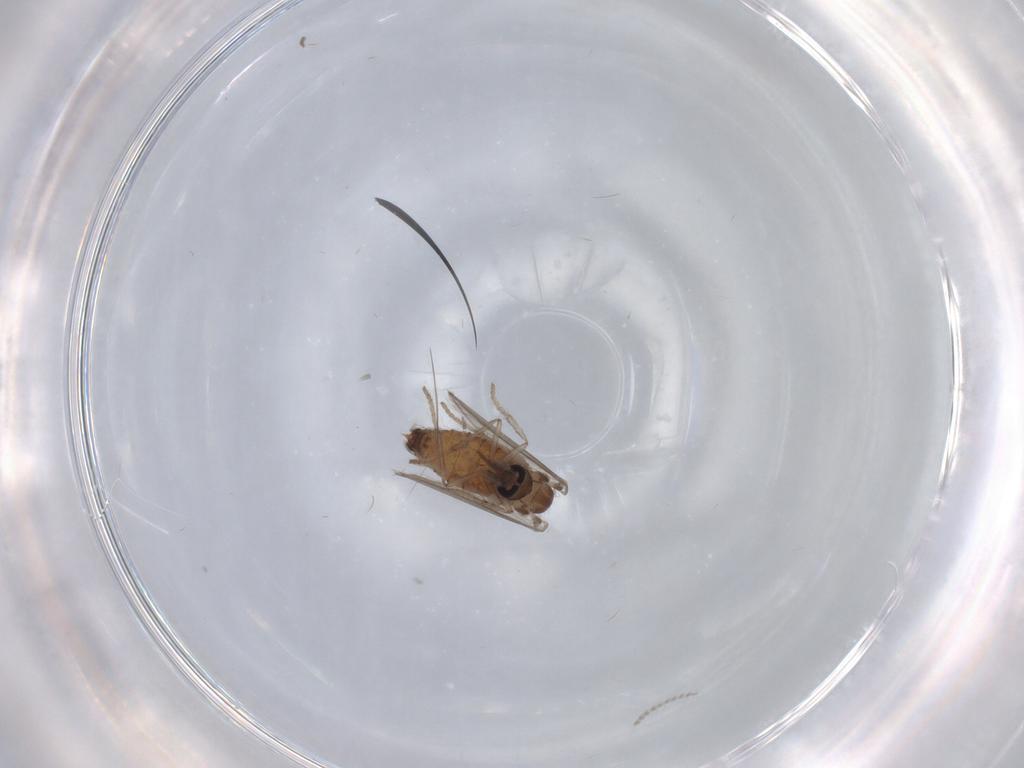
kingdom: Animalia
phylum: Arthropoda
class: Insecta
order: Diptera
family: Psychodidae
